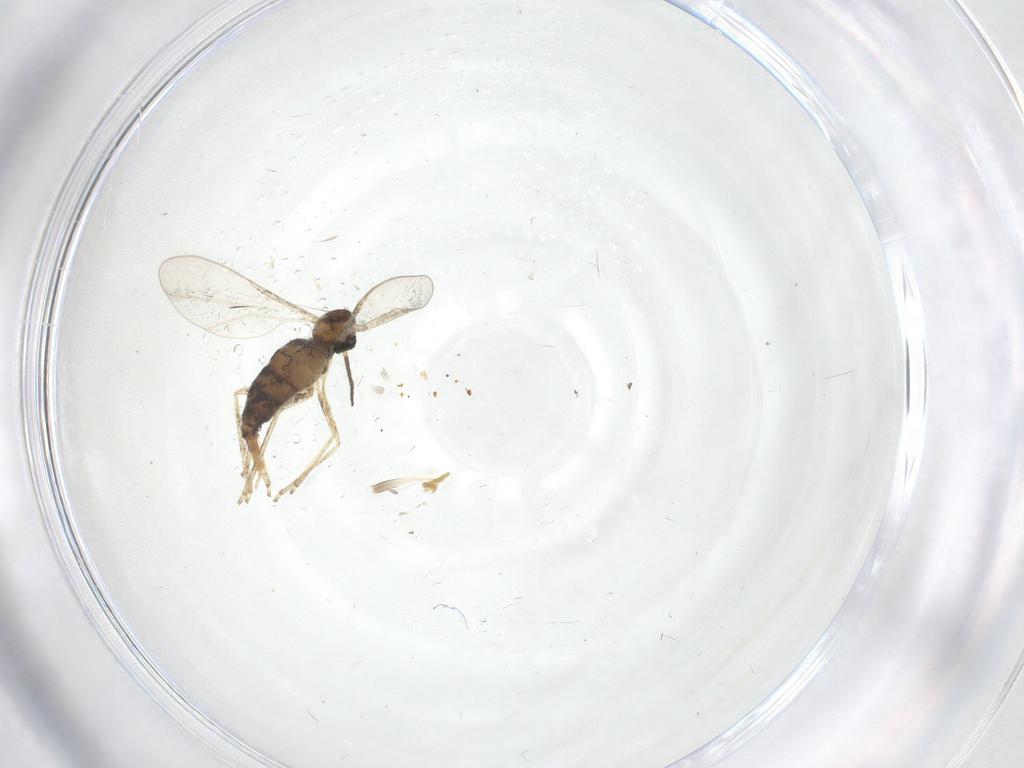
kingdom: Animalia
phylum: Arthropoda
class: Insecta
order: Diptera
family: Cecidomyiidae
